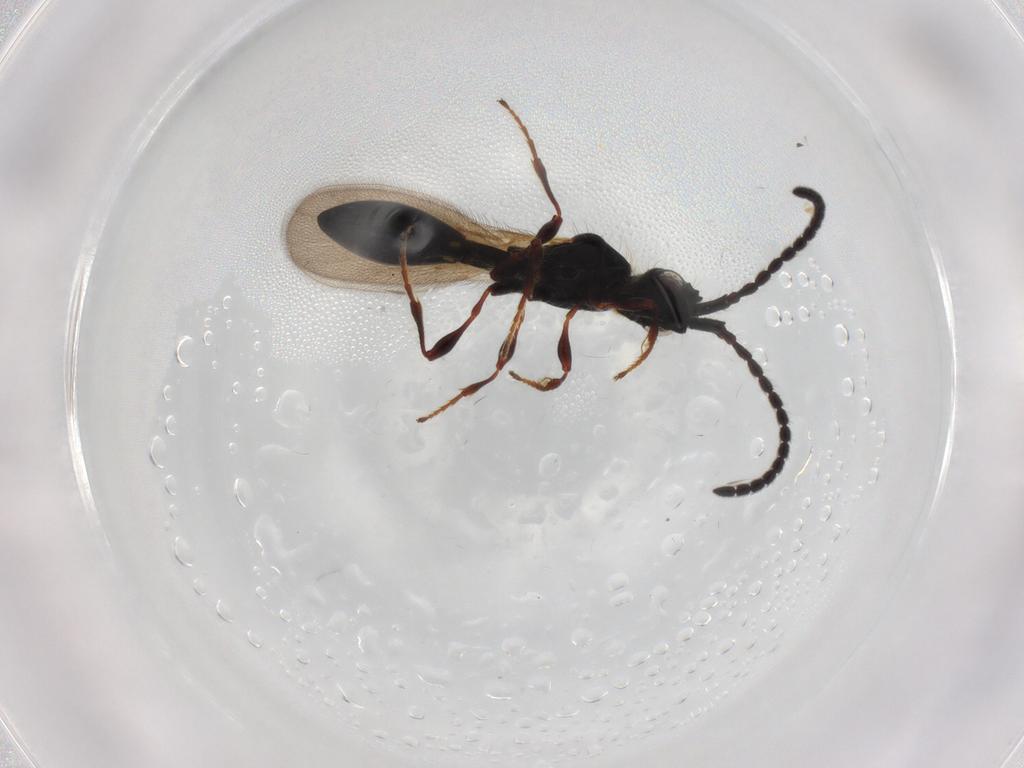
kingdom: Animalia
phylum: Arthropoda
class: Insecta
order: Hymenoptera
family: Diapriidae
